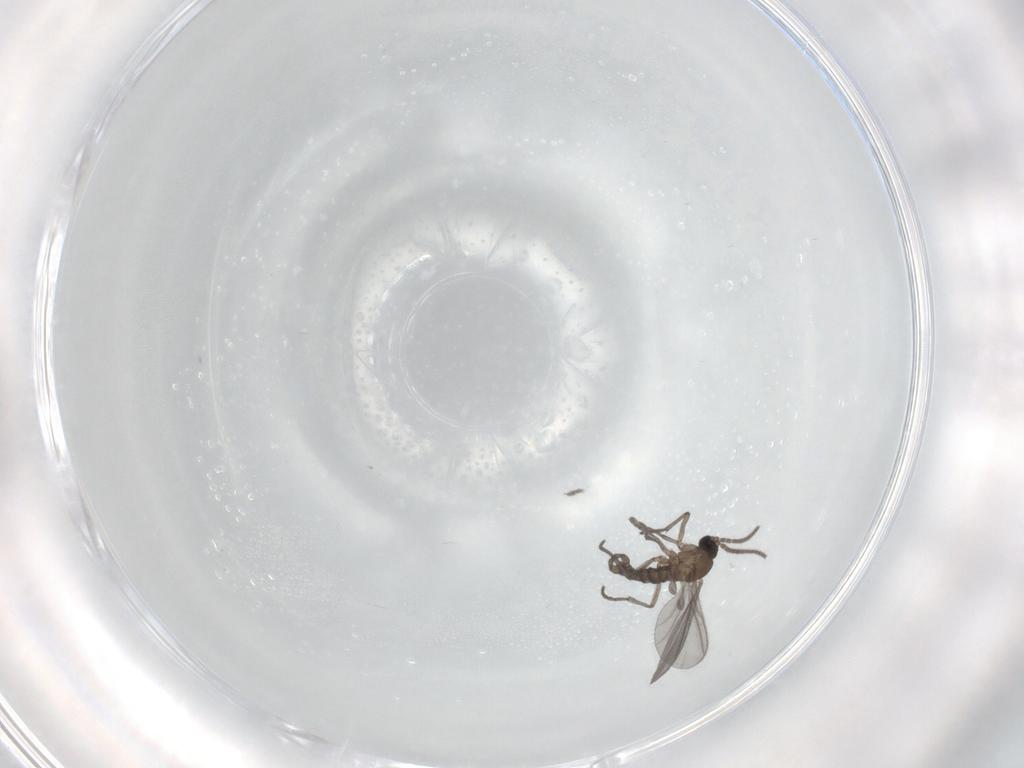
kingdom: Animalia
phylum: Arthropoda
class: Insecta
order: Diptera
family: Sciaridae
